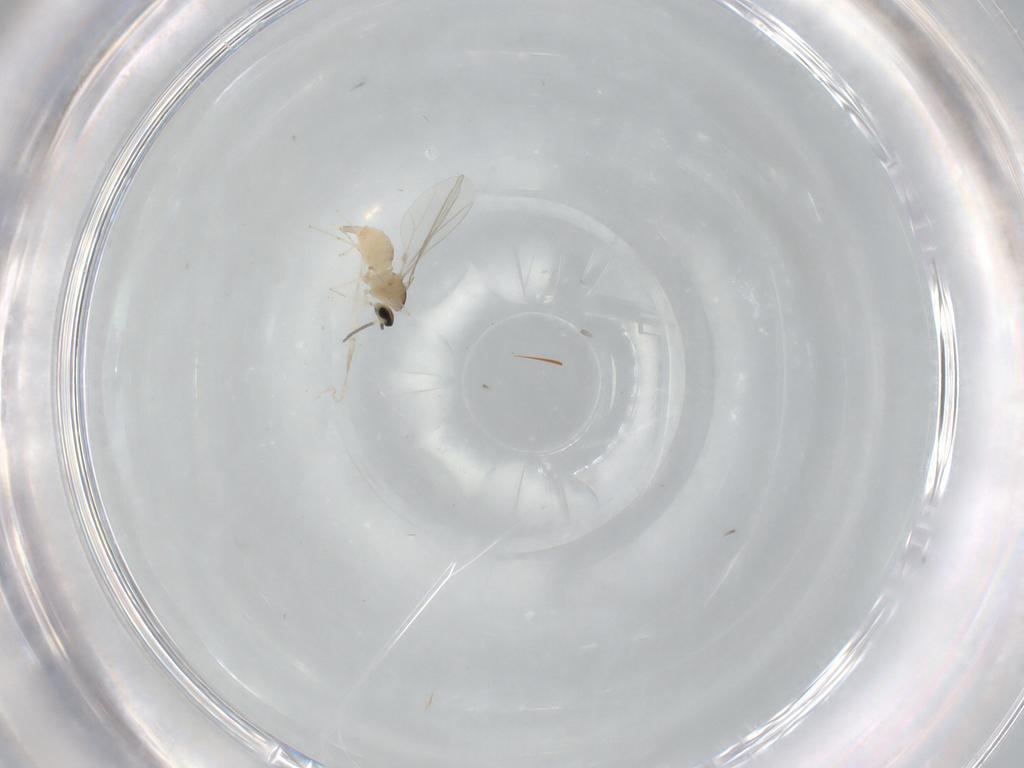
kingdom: Animalia
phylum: Arthropoda
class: Insecta
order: Diptera
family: Cecidomyiidae
